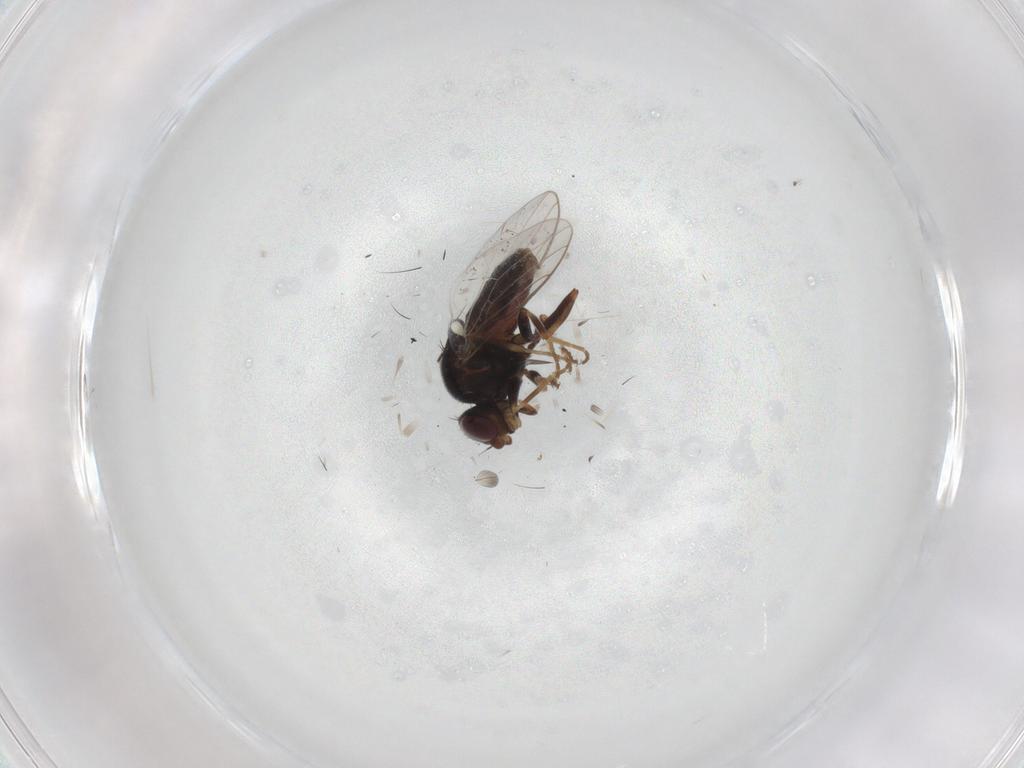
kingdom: Animalia
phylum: Arthropoda
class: Insecta
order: Diptera
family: Chloropidae
